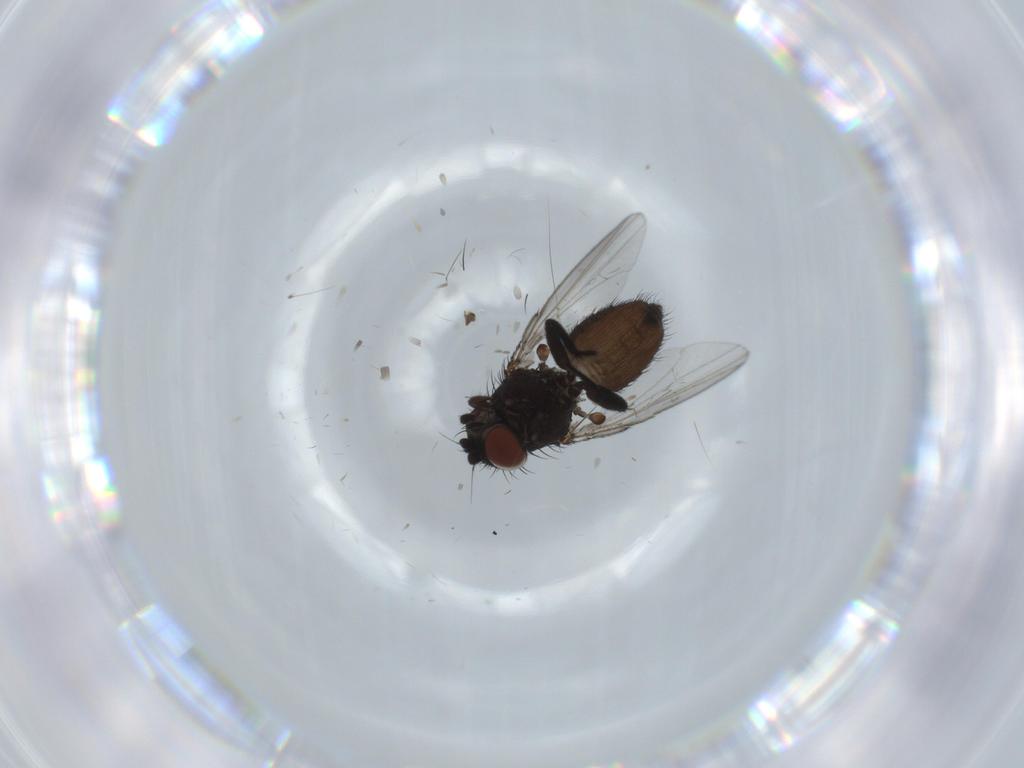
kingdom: Animalia
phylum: Arthropoda
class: Insecta
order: Diptera
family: Milichiidae
